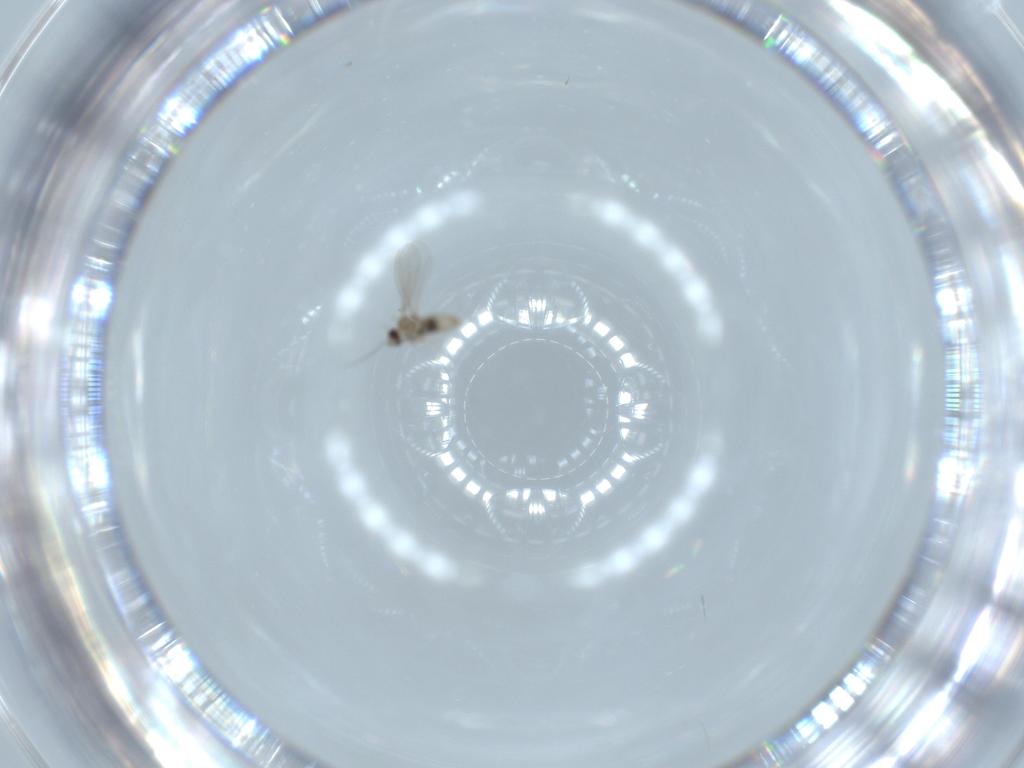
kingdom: Animalia
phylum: Arthropoda
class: Insecta
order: Diptera
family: Cecidomyiidae
